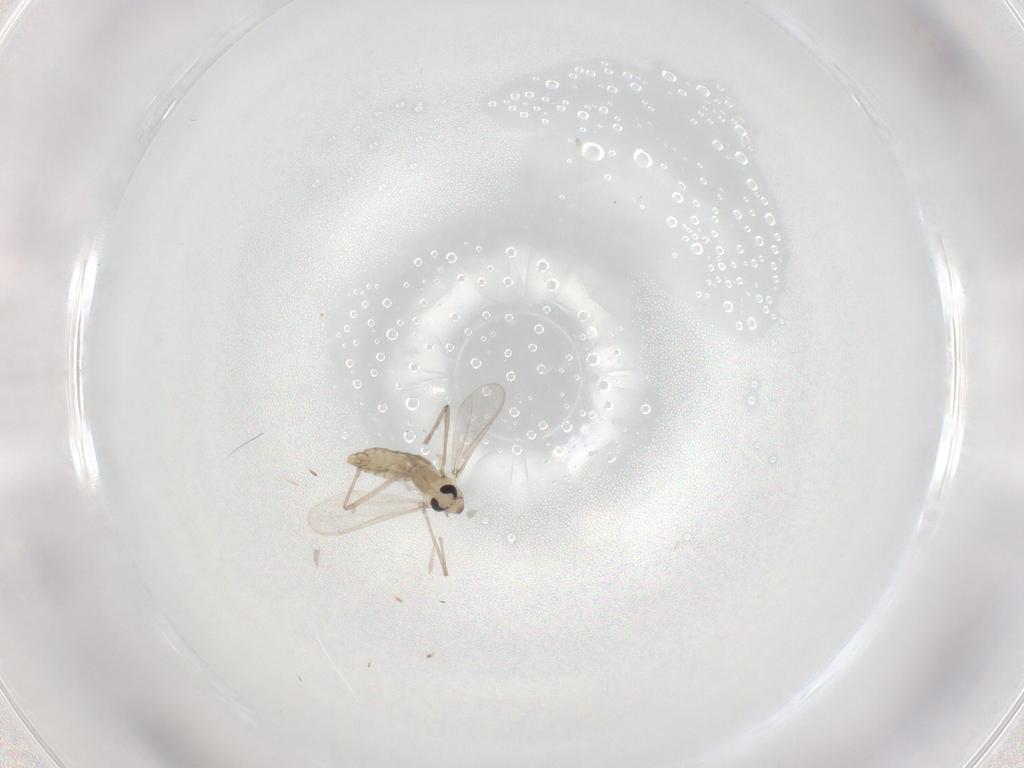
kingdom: Animalia
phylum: Arthropoda
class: Insecta
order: Diptera
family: Chironomidae
